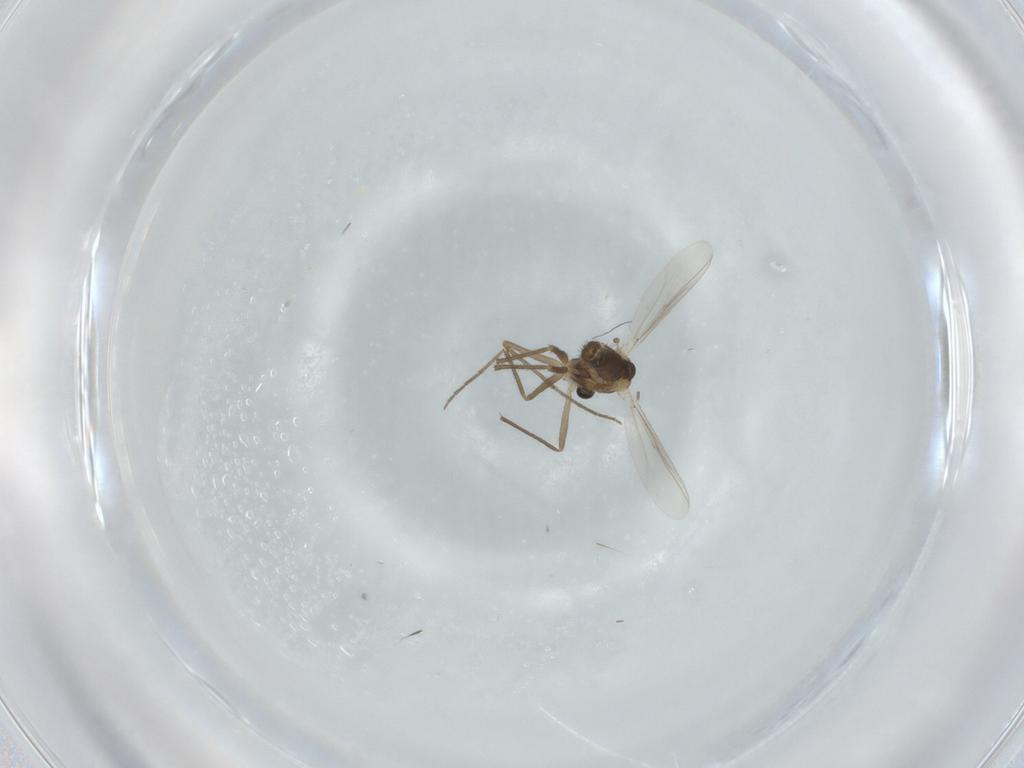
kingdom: Animalia
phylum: Arthropoda
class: Insecta
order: Diptera
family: Chironomidae
